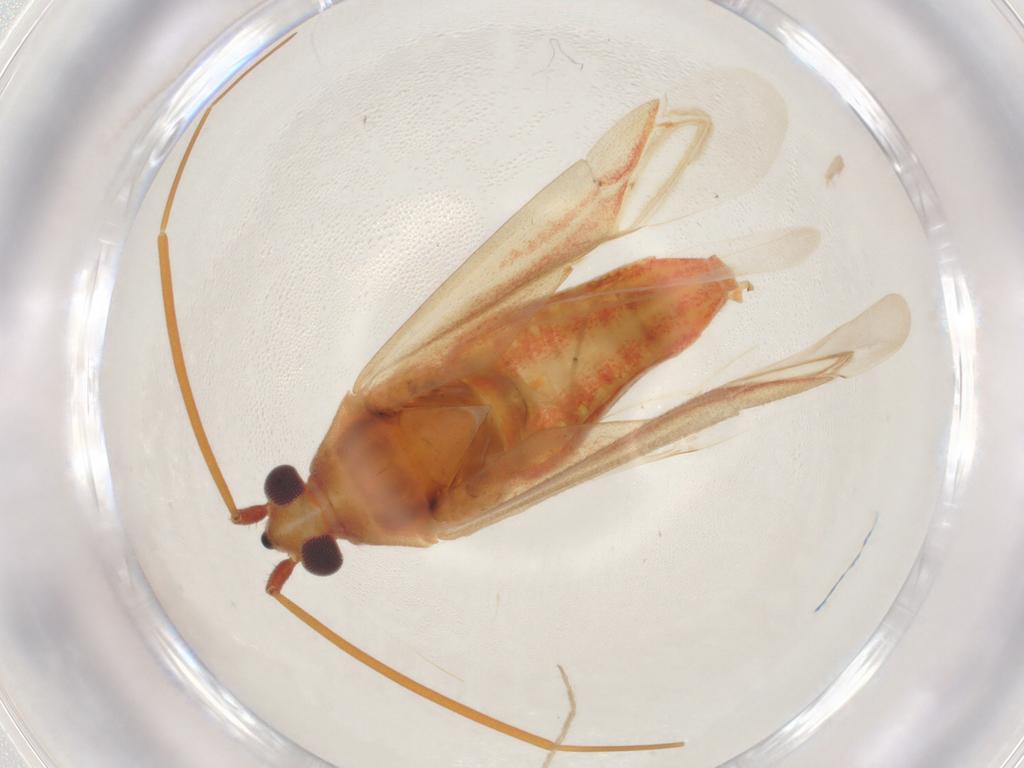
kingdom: Animalia
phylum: Arthropoda
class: Insecta
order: Hemiptera
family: Miridae
